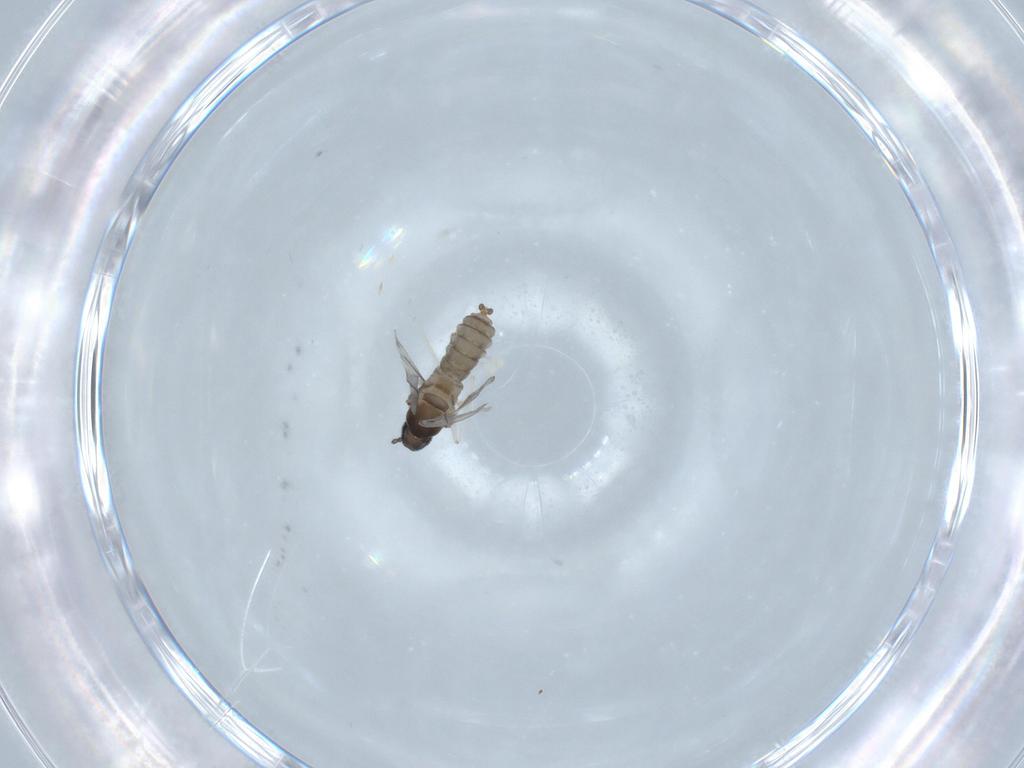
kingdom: Animalia
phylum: Arthropoda
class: Insecta
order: Diptera
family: Cecidomyiidae
